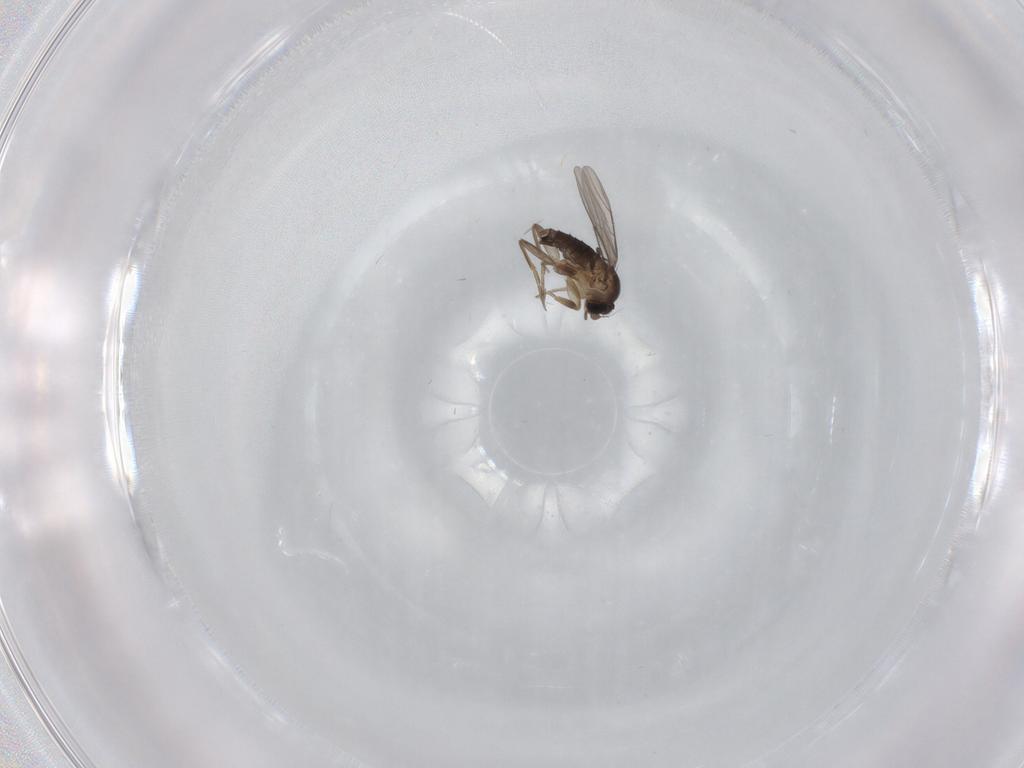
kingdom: Animalia
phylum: Arthropoda
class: Insecta
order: Diptera
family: Phoridae
